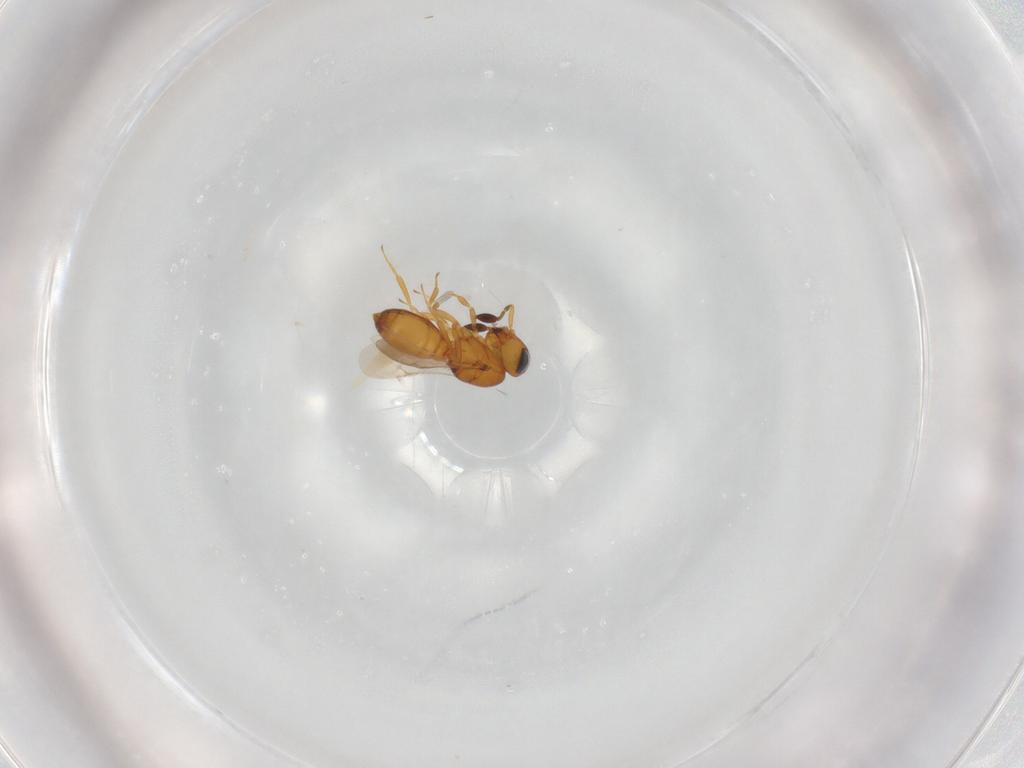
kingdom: Animalia
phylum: Arthropoda
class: Insecta
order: Hymenoptera
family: Scelionidae
